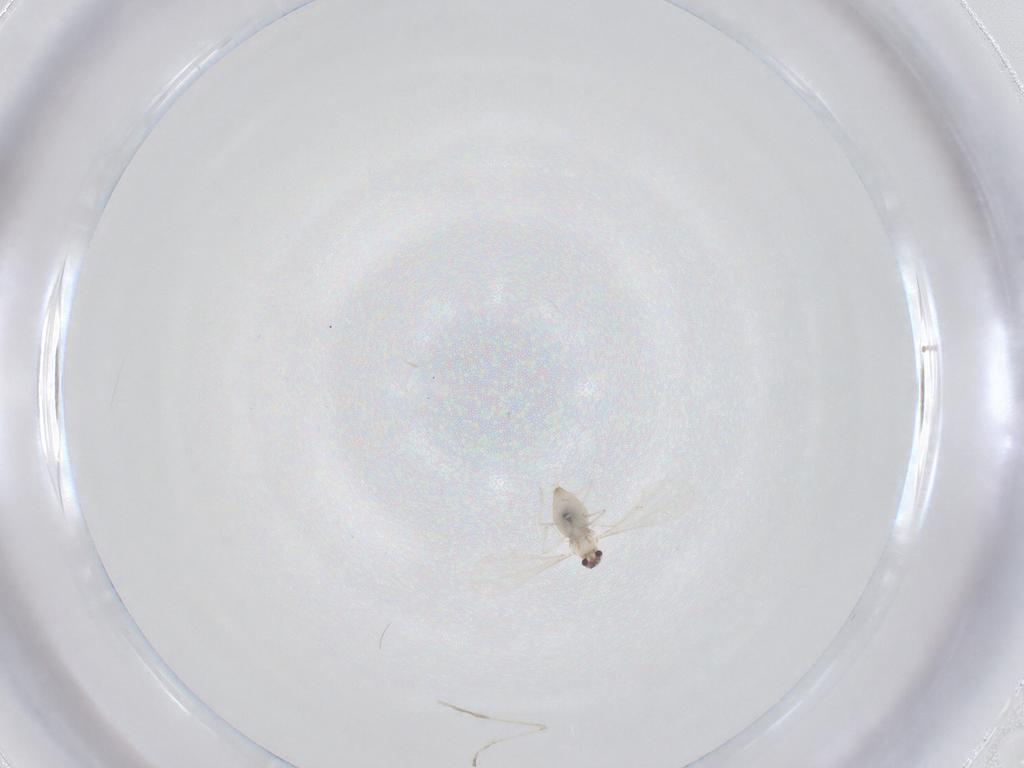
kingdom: Animalia
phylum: Arthropoda
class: Insecta
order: Diptera
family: Cecidomyiidae
